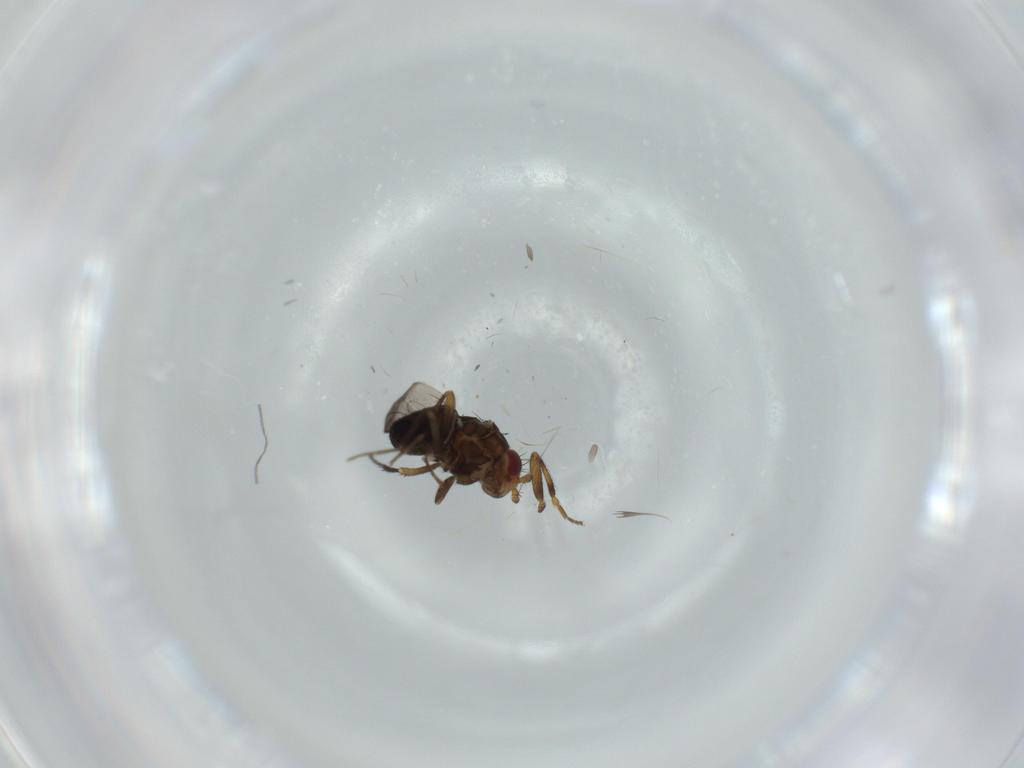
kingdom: Animalia
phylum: Arthropoda
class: Insecta
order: Diptera
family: Sphaeroceridae
